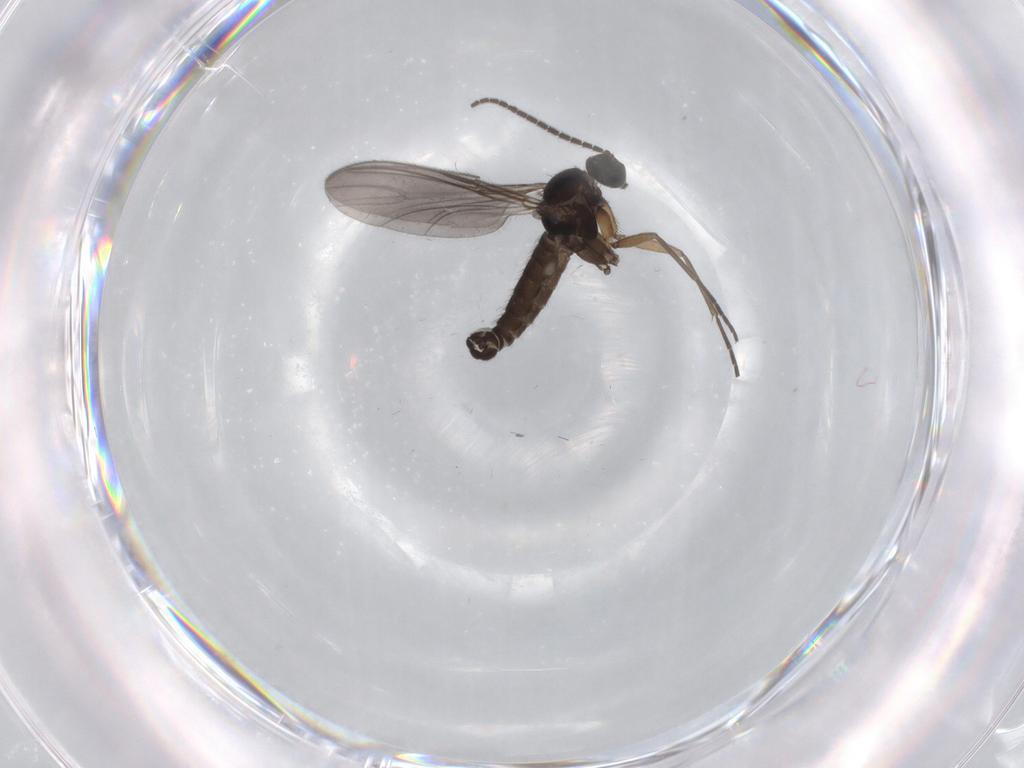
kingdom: Animalia
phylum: Arthropoda
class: Insecta
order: Diptera
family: Sciaridae
